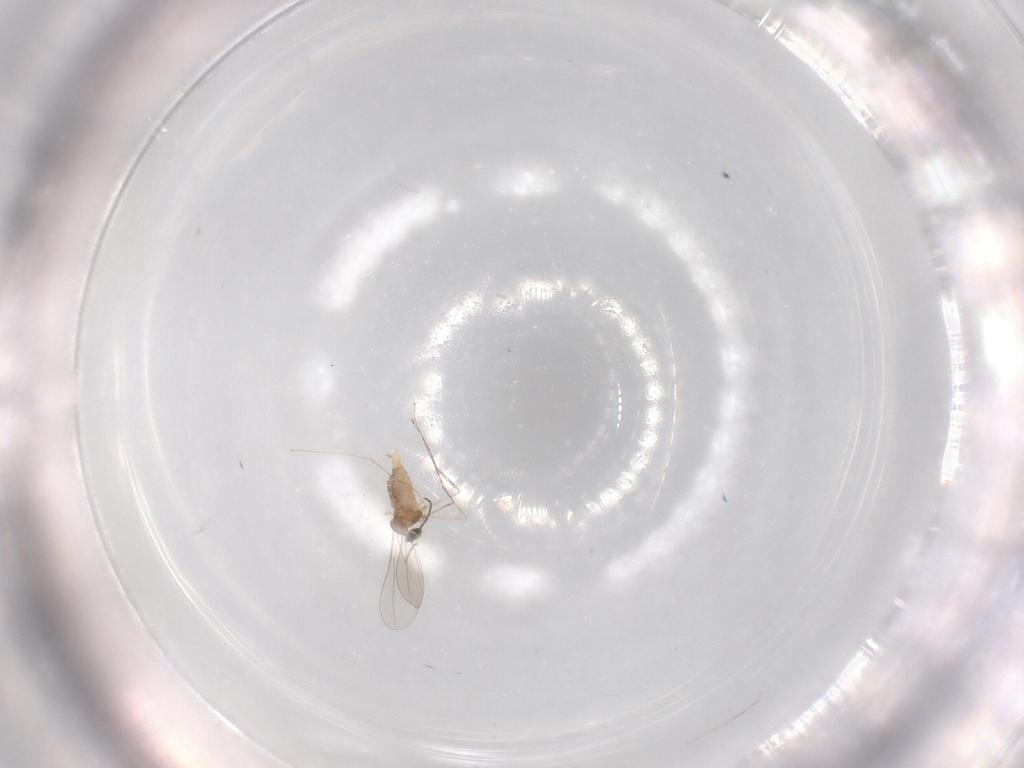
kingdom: Animalia
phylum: Arthropoda
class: Insecta
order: Diptera
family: Cecidomyiidae
